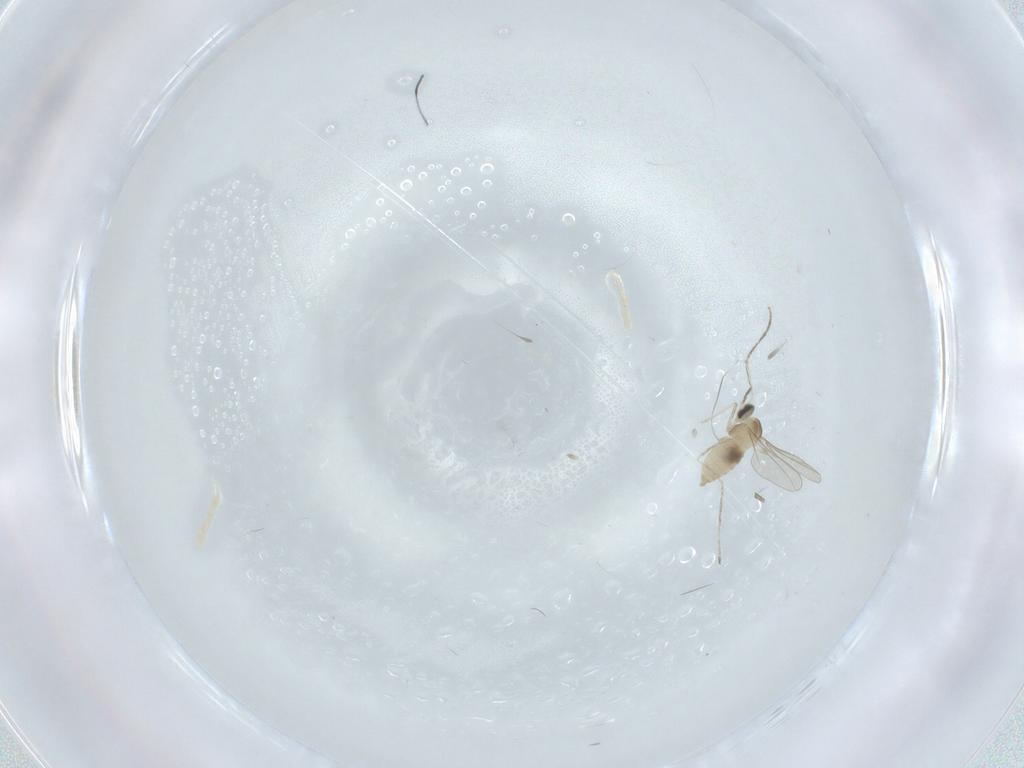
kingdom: Animalia
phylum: Arthropoda
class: Insecta
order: Diptera
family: Cecidomyiidae
